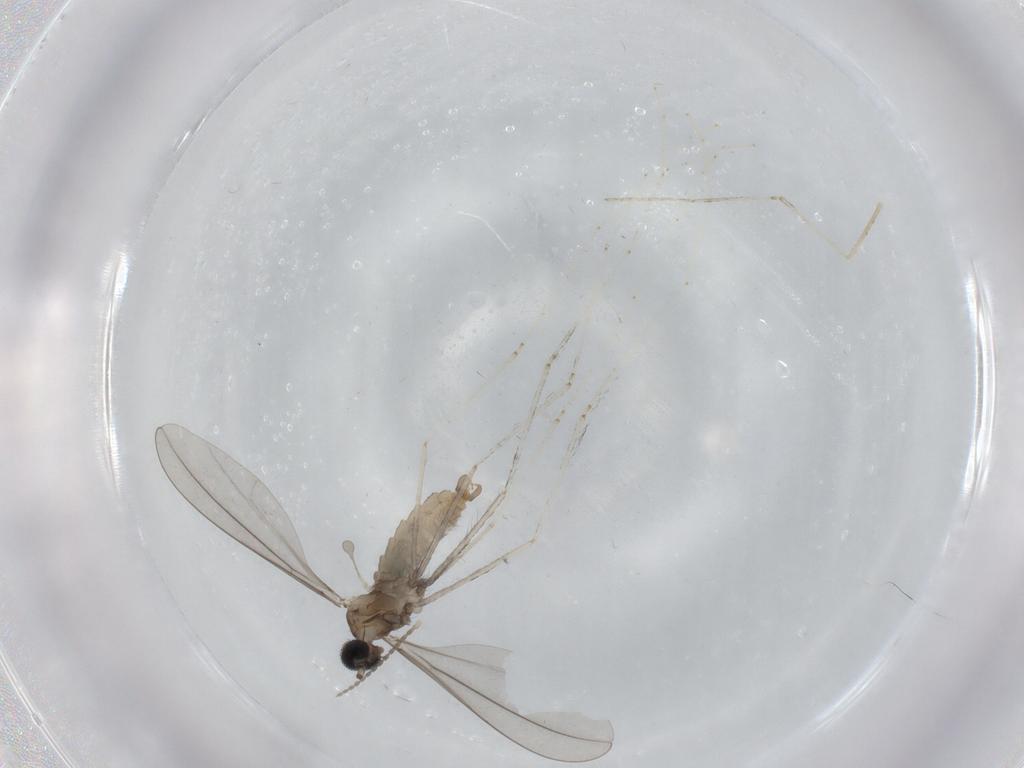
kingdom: Animalia
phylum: Arthropoda
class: Insecta
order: Diptera
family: Cecidomyiidae
